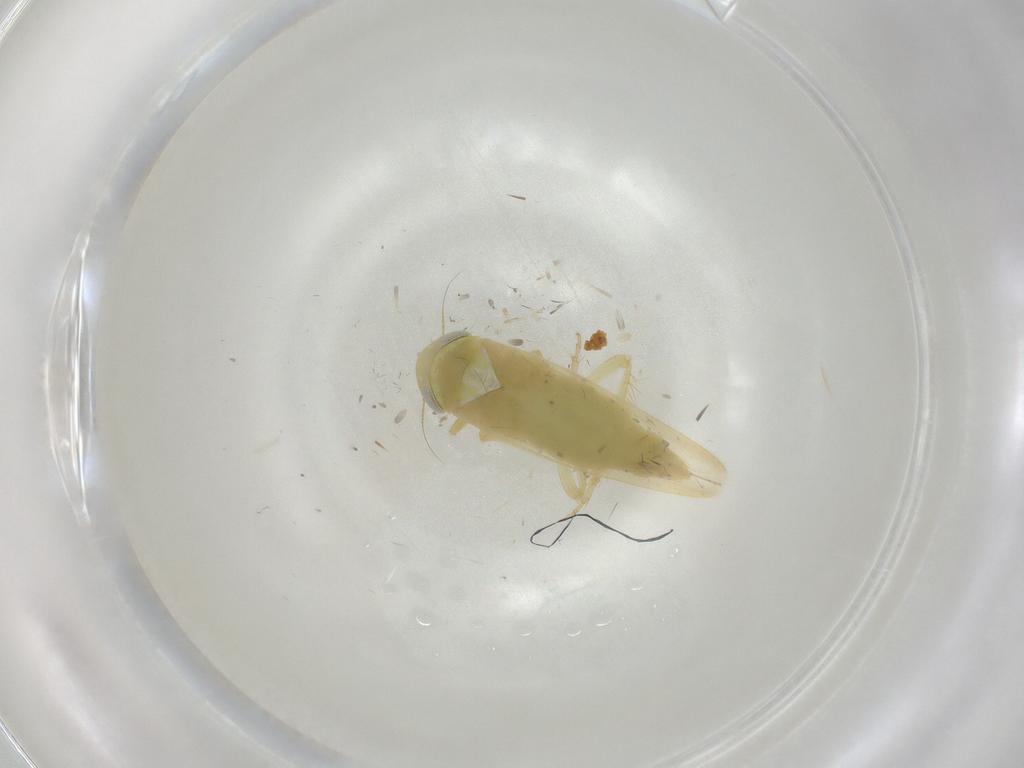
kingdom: Animalia
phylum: Arthropoda
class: Insecta
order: Hemiptera
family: Cicadellidae
